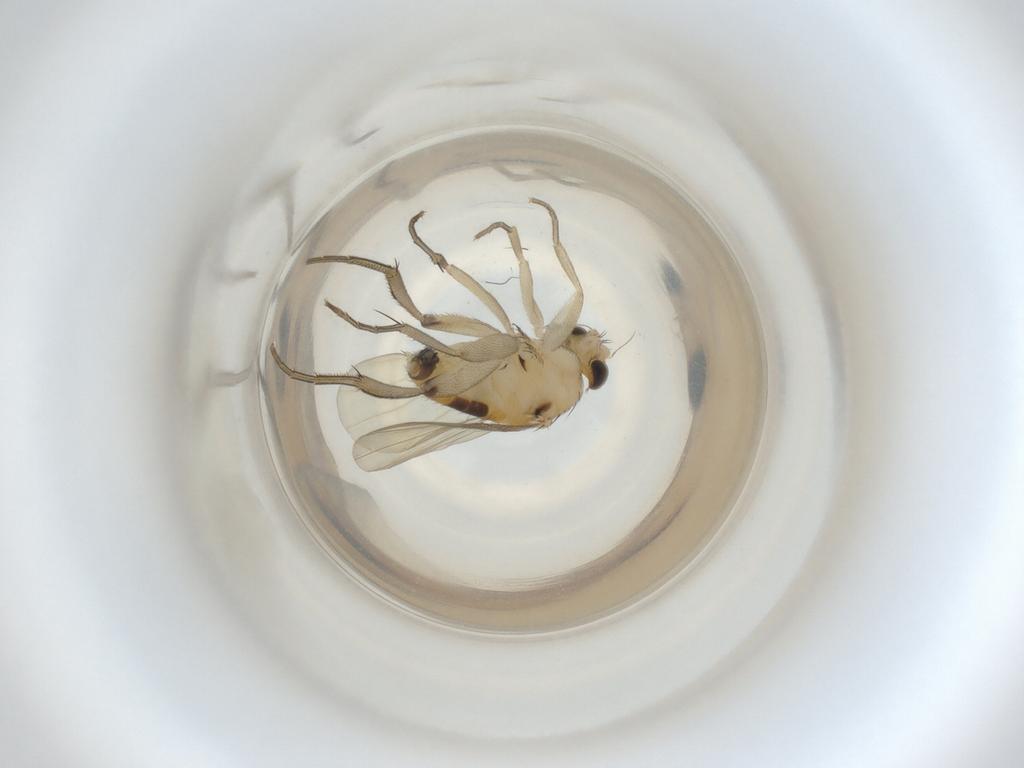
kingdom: Animalia
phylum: Arthropoda
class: Insecta
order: Diptera
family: Phoridae
